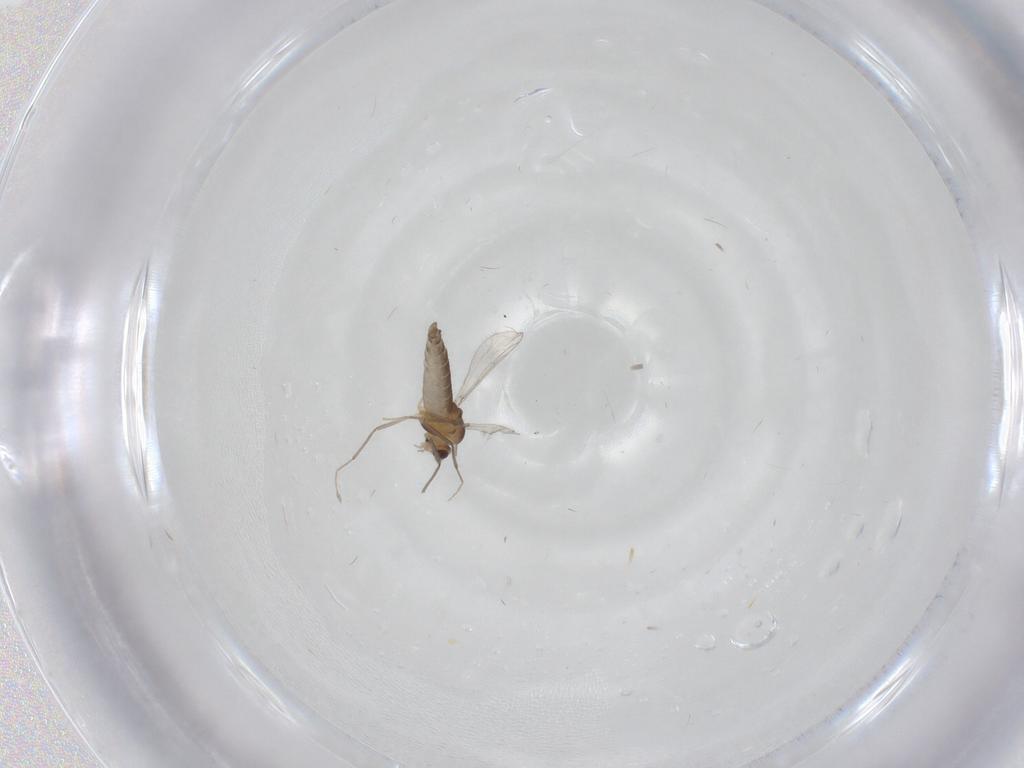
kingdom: Animalia
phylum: Arthropoda
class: Insecta
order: Diptera
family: Chironomidae
